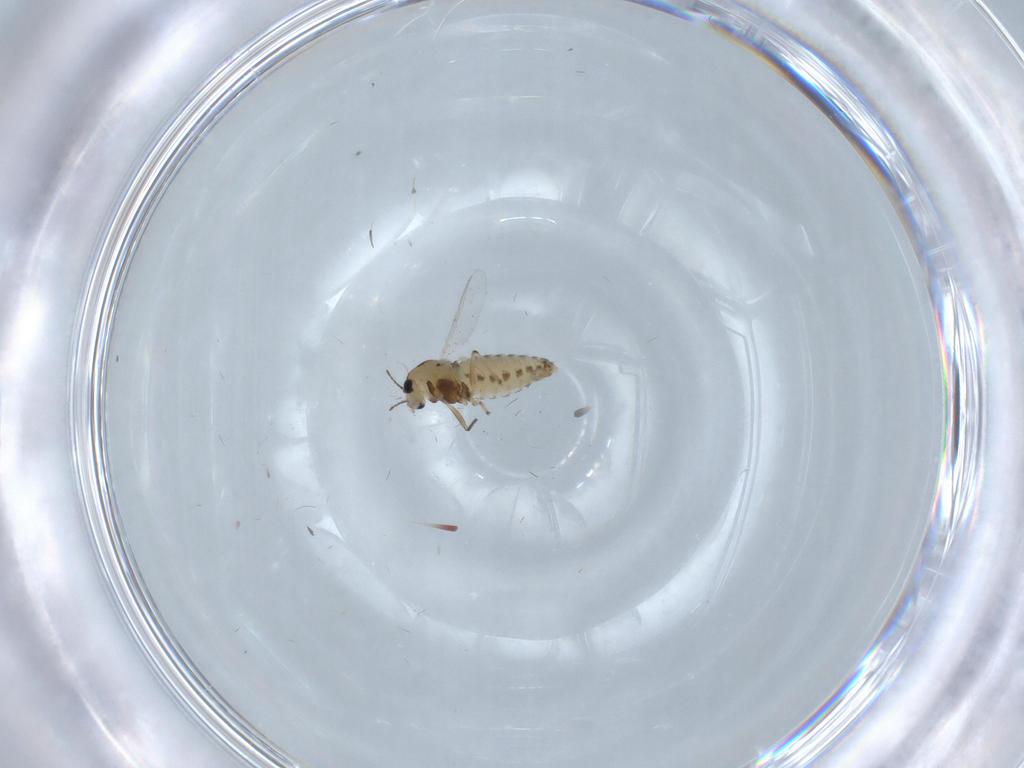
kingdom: Animalia
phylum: Arthropoda
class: Insecta
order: Diptera
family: Chironomidae
